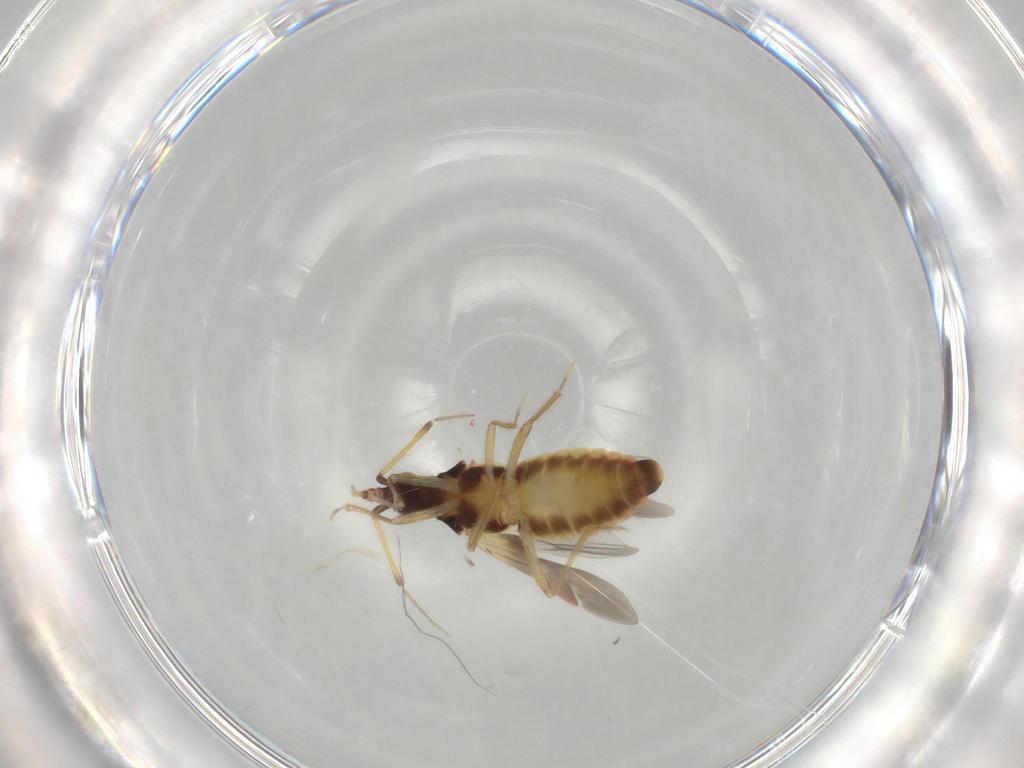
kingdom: Animalia
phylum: Arthropoda
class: Insecta
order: Hemiptera
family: Lasiochilidae
